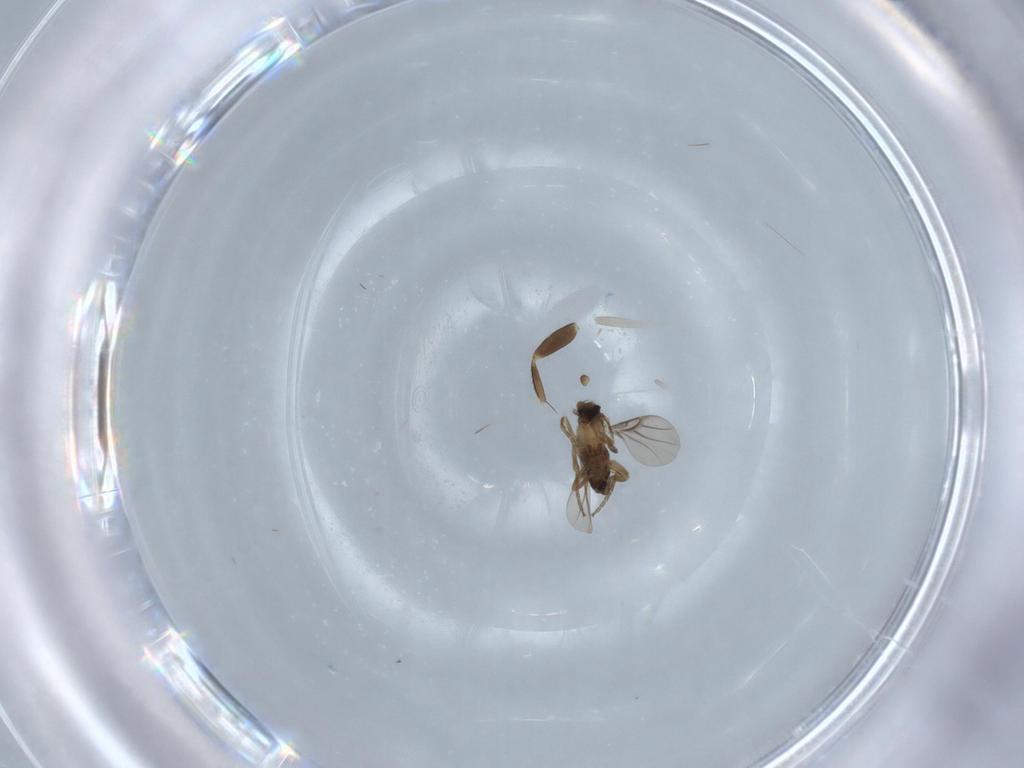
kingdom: Animalia
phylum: Arthropoda
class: Insecta
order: Diptera
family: Phoridae
